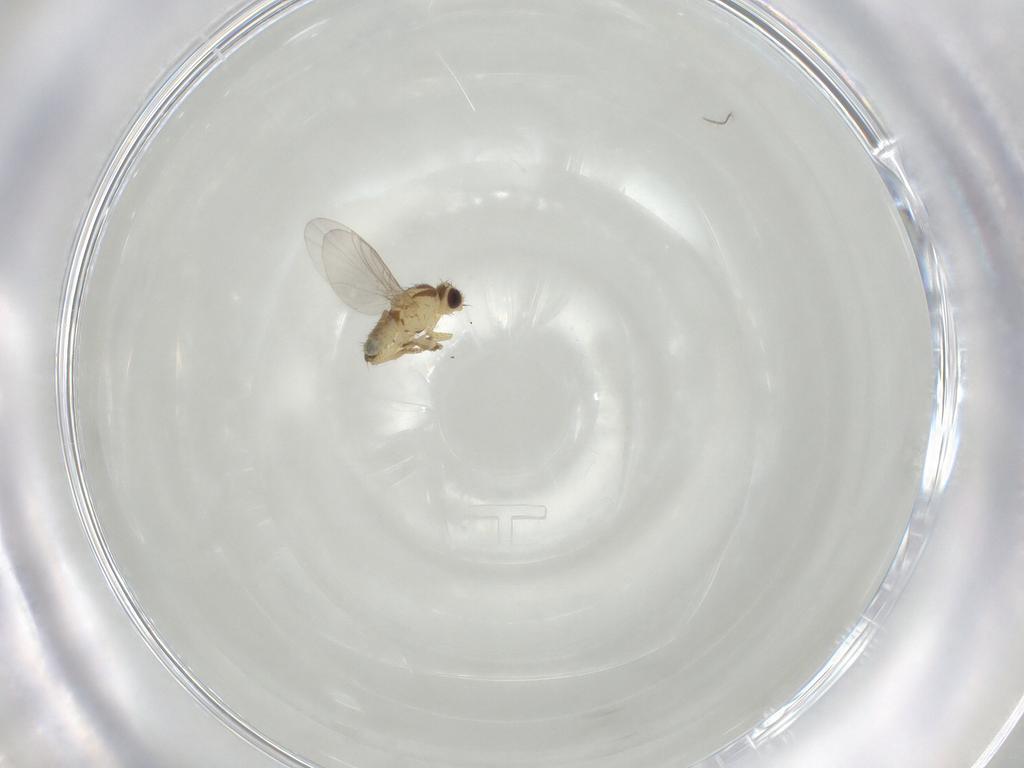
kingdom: Animalia
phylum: Arthropoda
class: Insecta
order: Diptera
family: Agromyzidae
